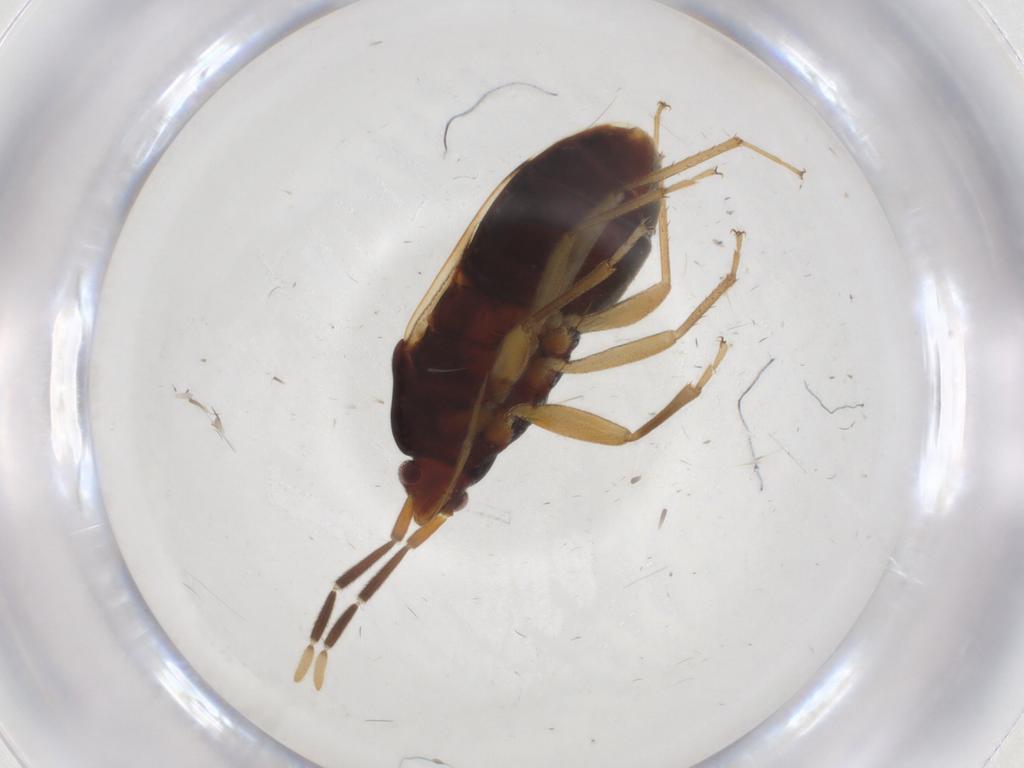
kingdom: Animalia
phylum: Arthropoda
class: Insecta
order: Hemiptera
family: Rhyparochromidae
